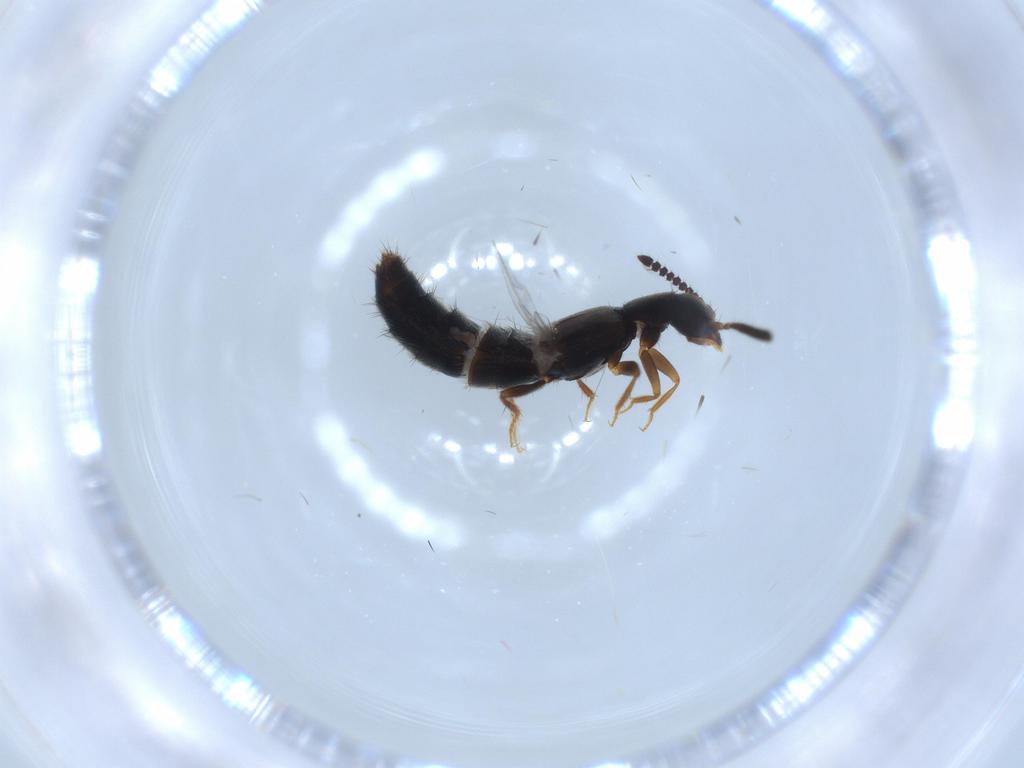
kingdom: Animalia
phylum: Arthropoda
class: Insecta
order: Coleoptera
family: Staphylinidae
